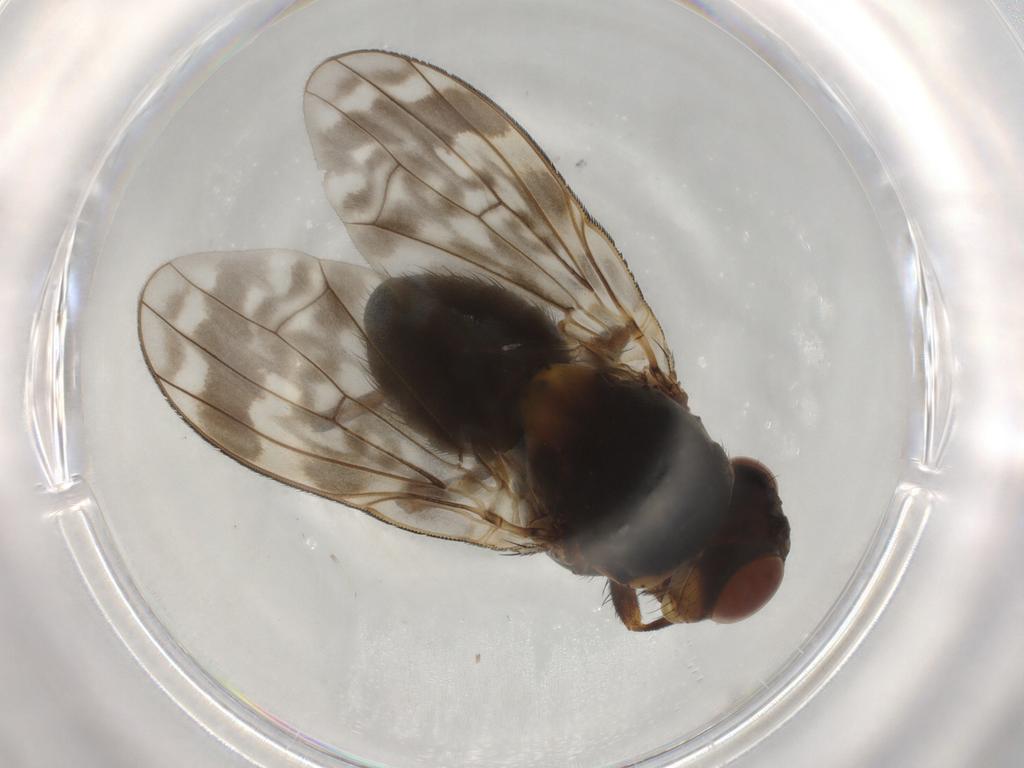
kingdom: Animalia
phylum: Arthropoda
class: Insecta
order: Diptera
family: Lauxaniidae
